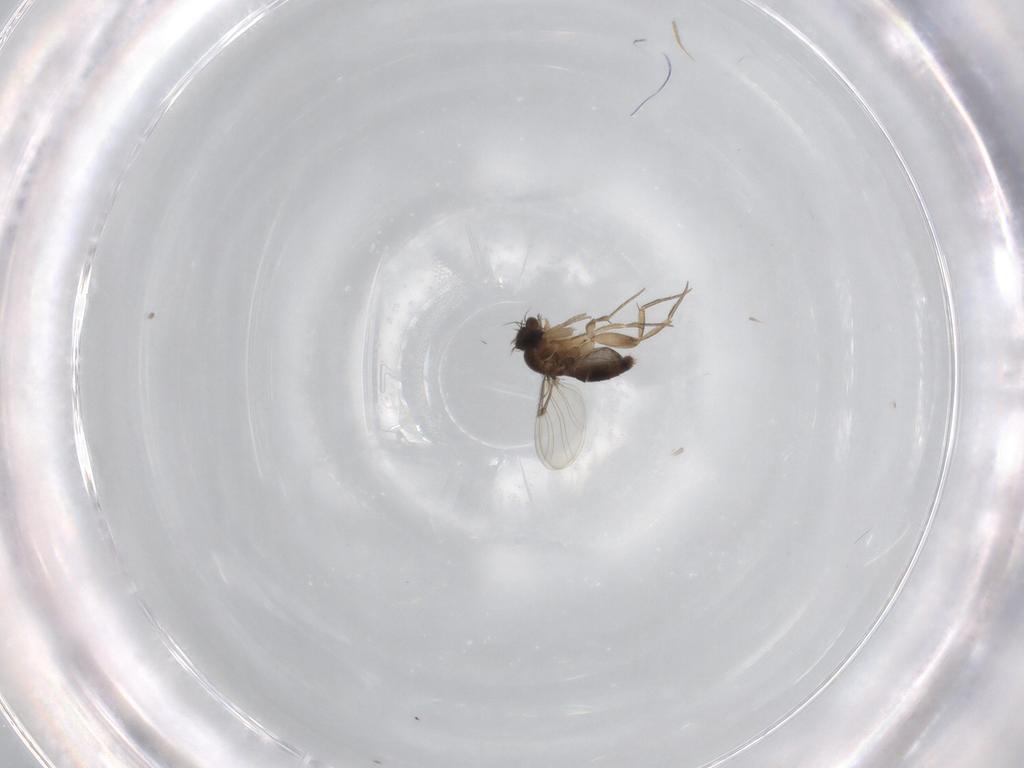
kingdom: Animalia
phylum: Arthropoda
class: Insecta
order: Diptera
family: Phoridae
